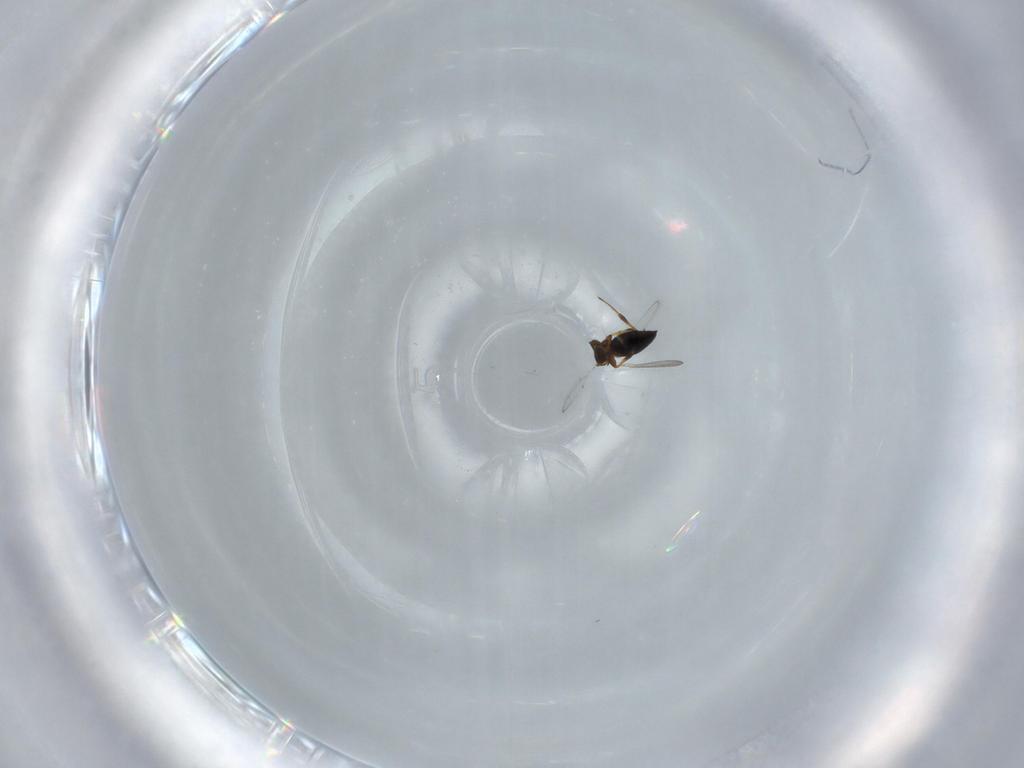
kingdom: Animalia
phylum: Arthropoda
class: Insecta
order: Hymenoptera
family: Platygastridae
